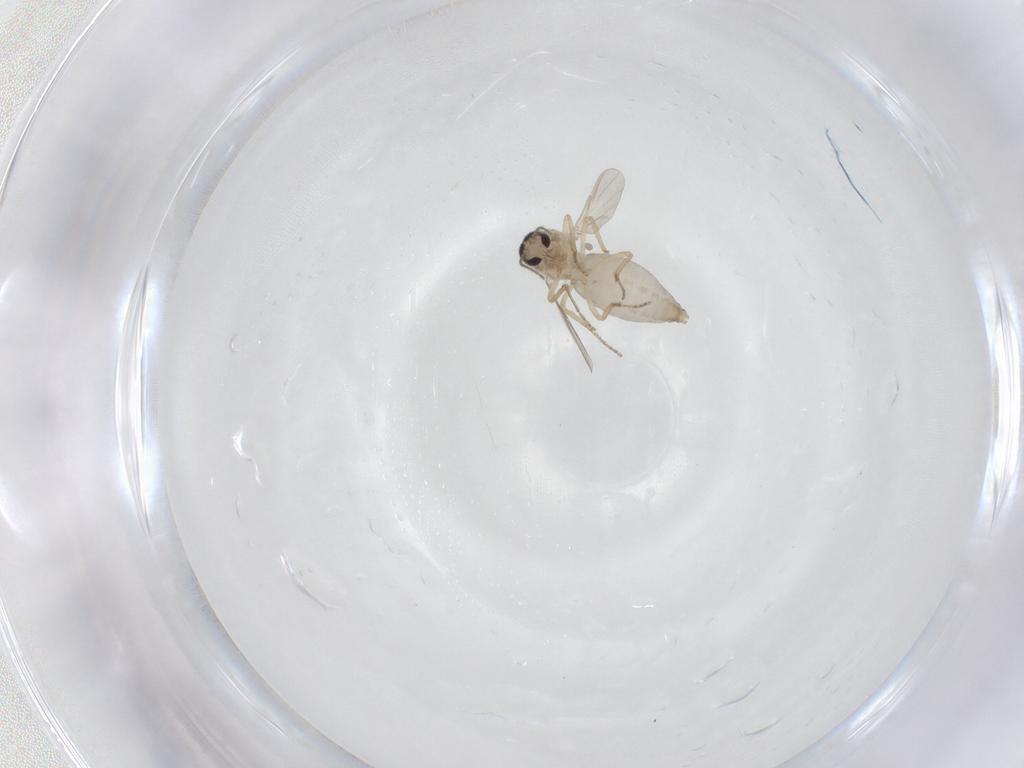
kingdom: Animalia
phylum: Arthropoda
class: Insecta
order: Diptera
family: Ceratopogonidae
